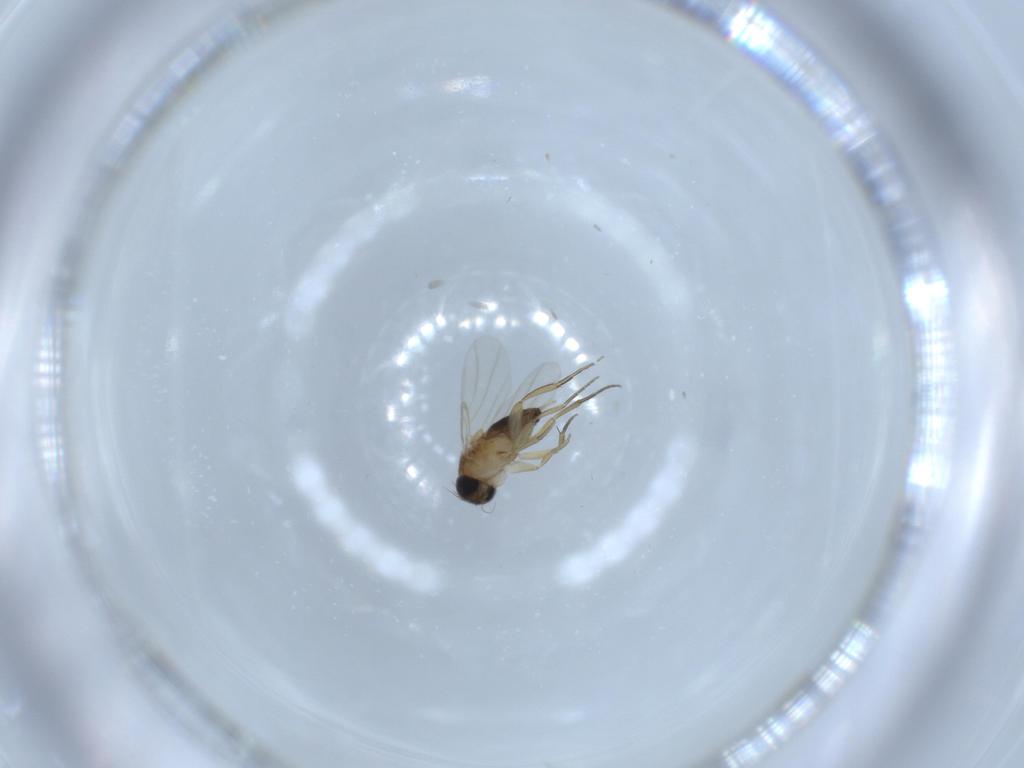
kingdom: Animalia
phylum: Arthropoda
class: Insecta
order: Diptera
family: Phoridae
